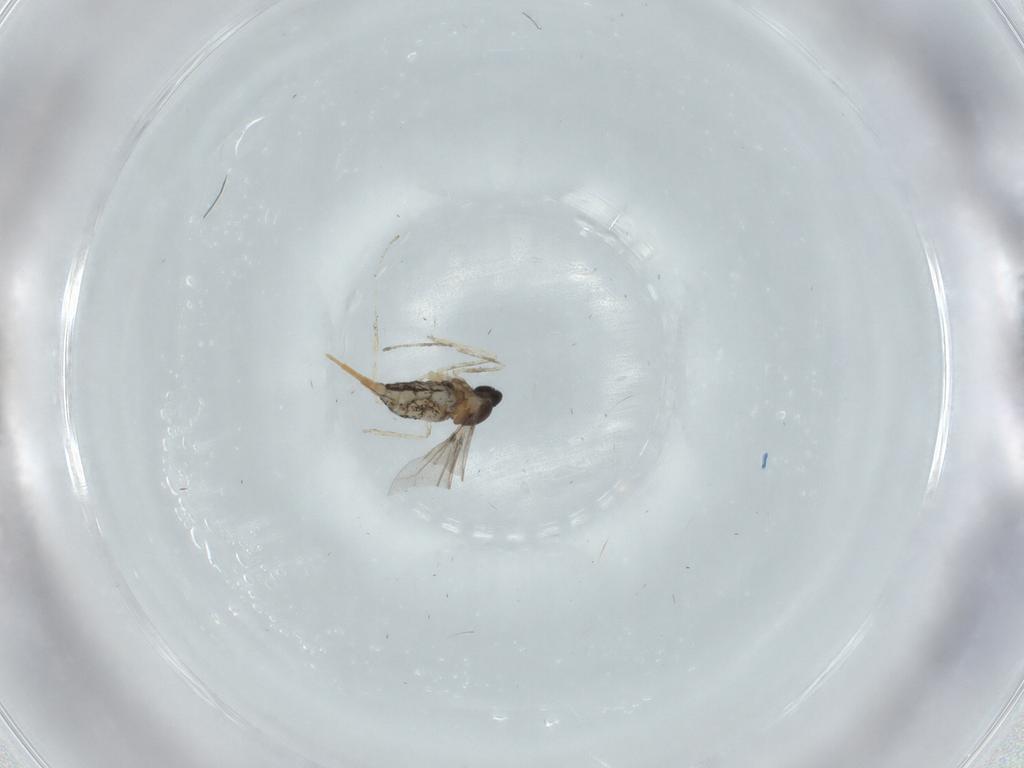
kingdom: Animalia
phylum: Arthropoda
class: Insecta
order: Diptera
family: Cecidomyiidae
